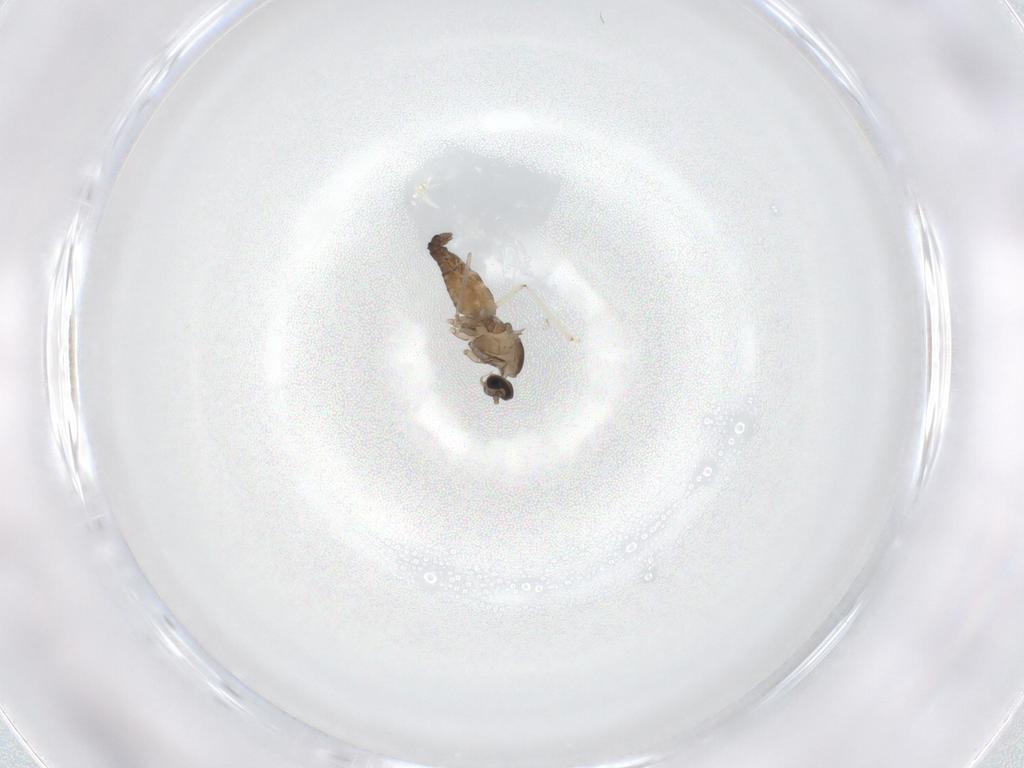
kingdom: Animalia
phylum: Arthropoda
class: Insecta
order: Diptera
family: Cecidomyiidae
